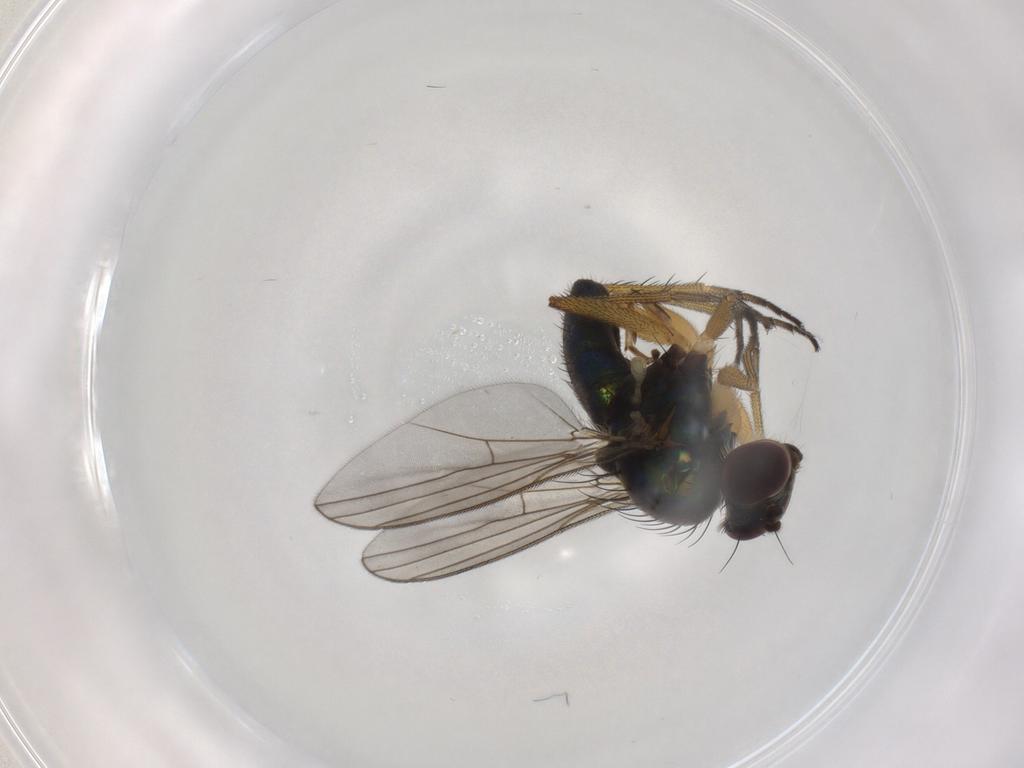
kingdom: Animalia
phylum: Arthropoda
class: Insecta
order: Diptera
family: Dolichopodidae
